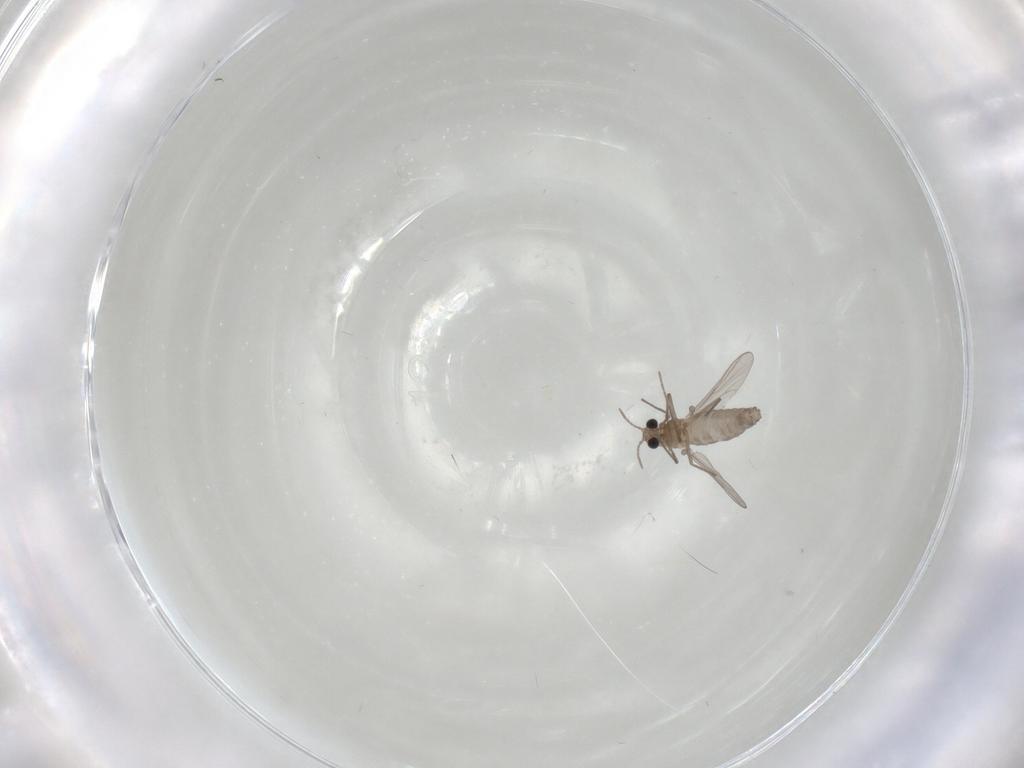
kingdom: Animalia
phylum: Arthropoda
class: Insecta
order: Diptera
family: Chironomidae
